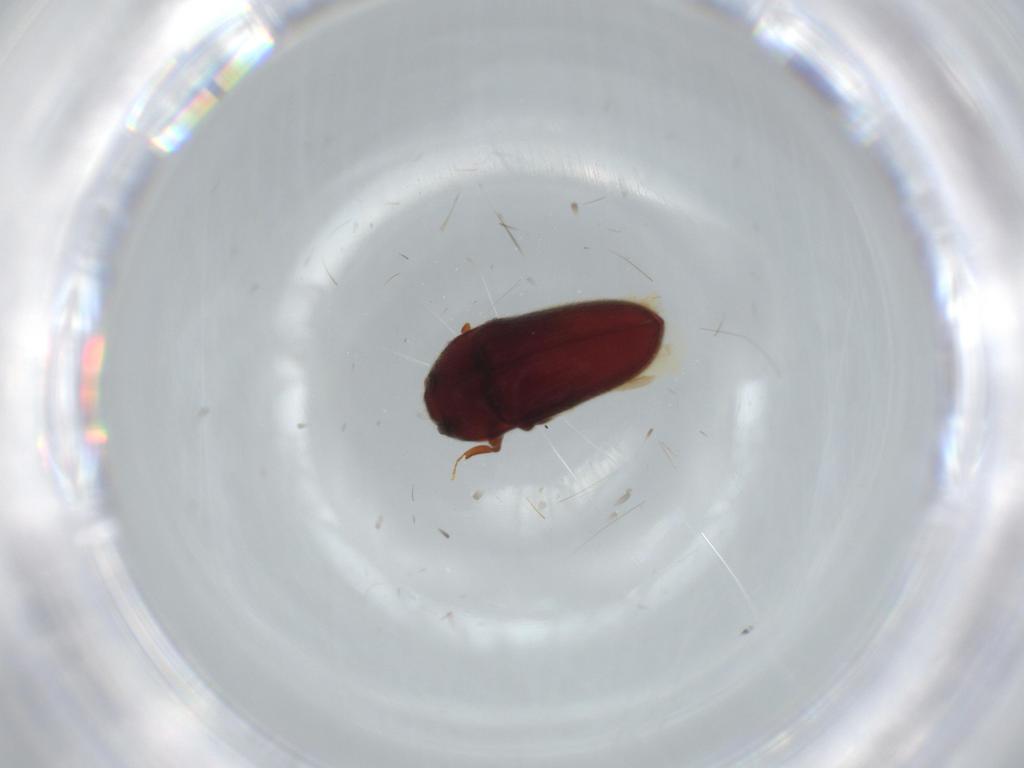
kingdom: Animalia
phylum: Arthropoda
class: Insecta
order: Coleoptera
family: Throscidae
